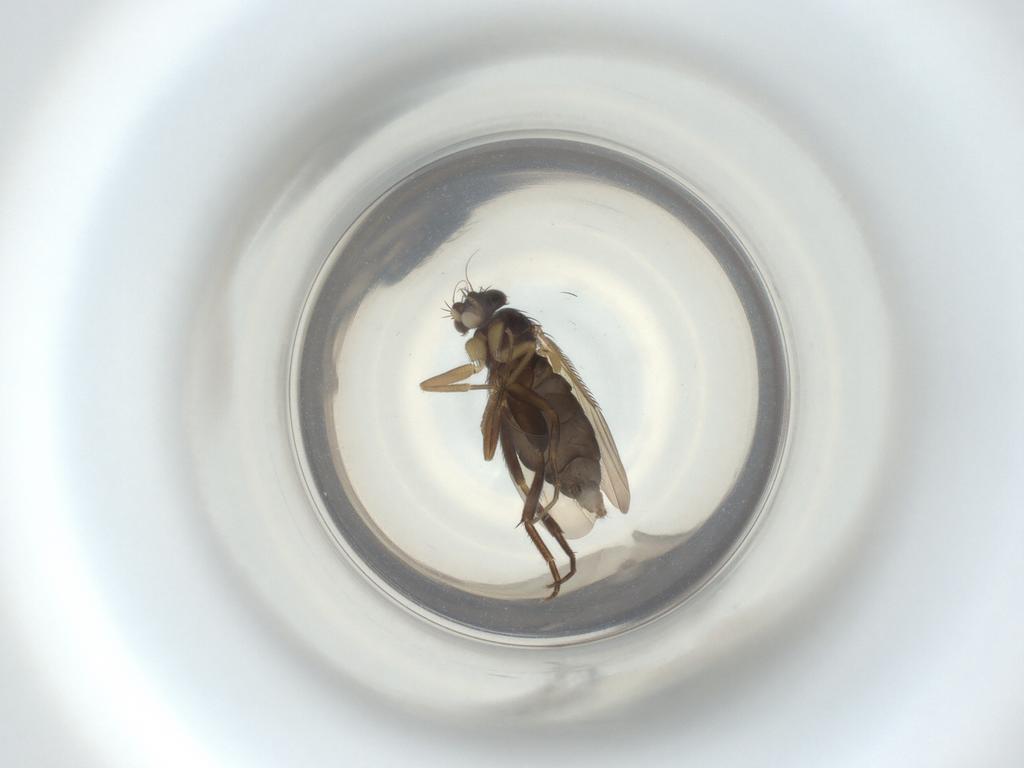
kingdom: Animalia
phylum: Arthropoda
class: Insecta
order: Diptera
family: Phoridae
